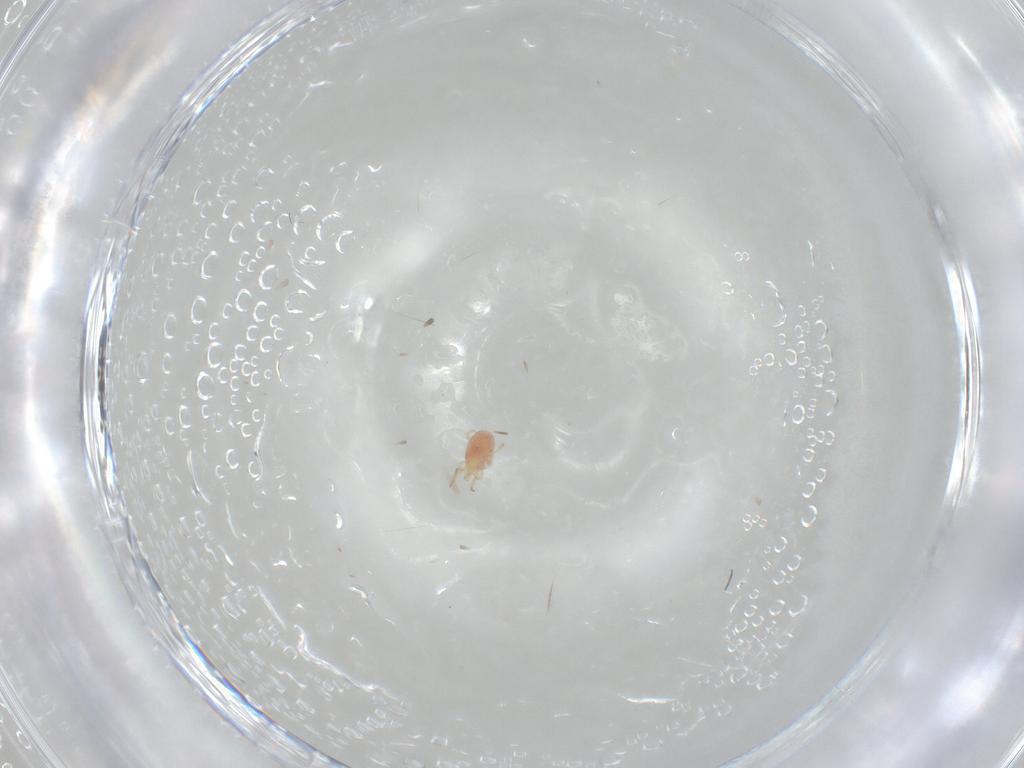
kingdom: Animalia
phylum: Arthropoda
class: Arachnida
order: Mesostigmata
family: Phytoseiidae
